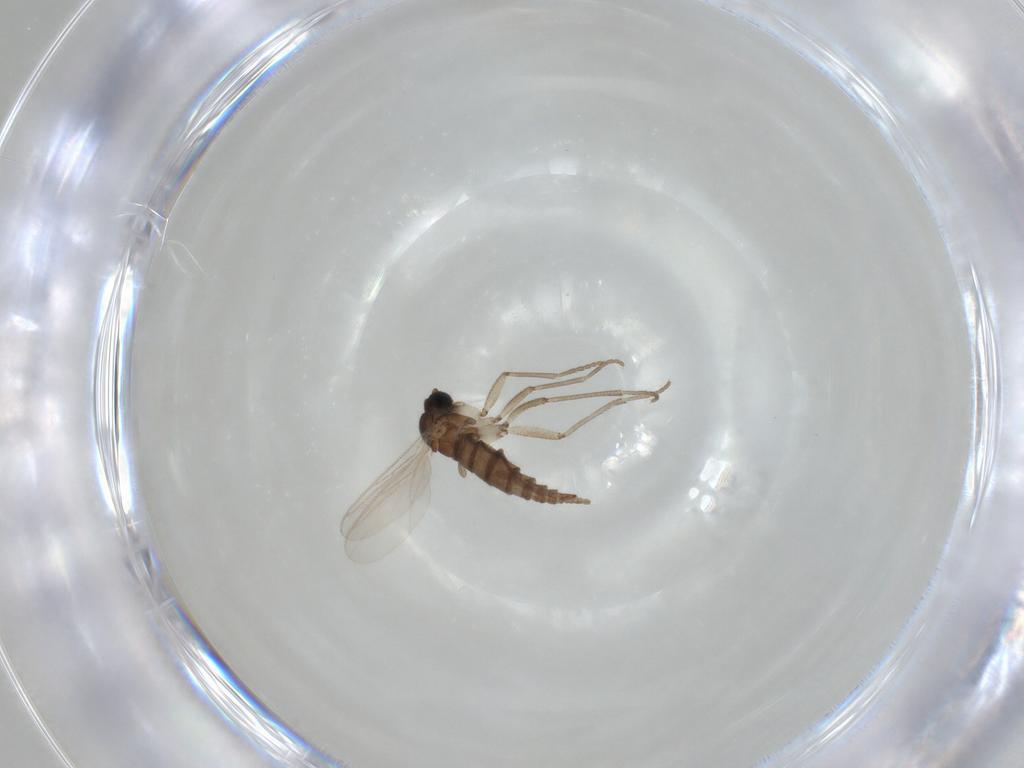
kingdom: Animalia
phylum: Arthropoda
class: Insecta
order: Diptera
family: Sciaridae
